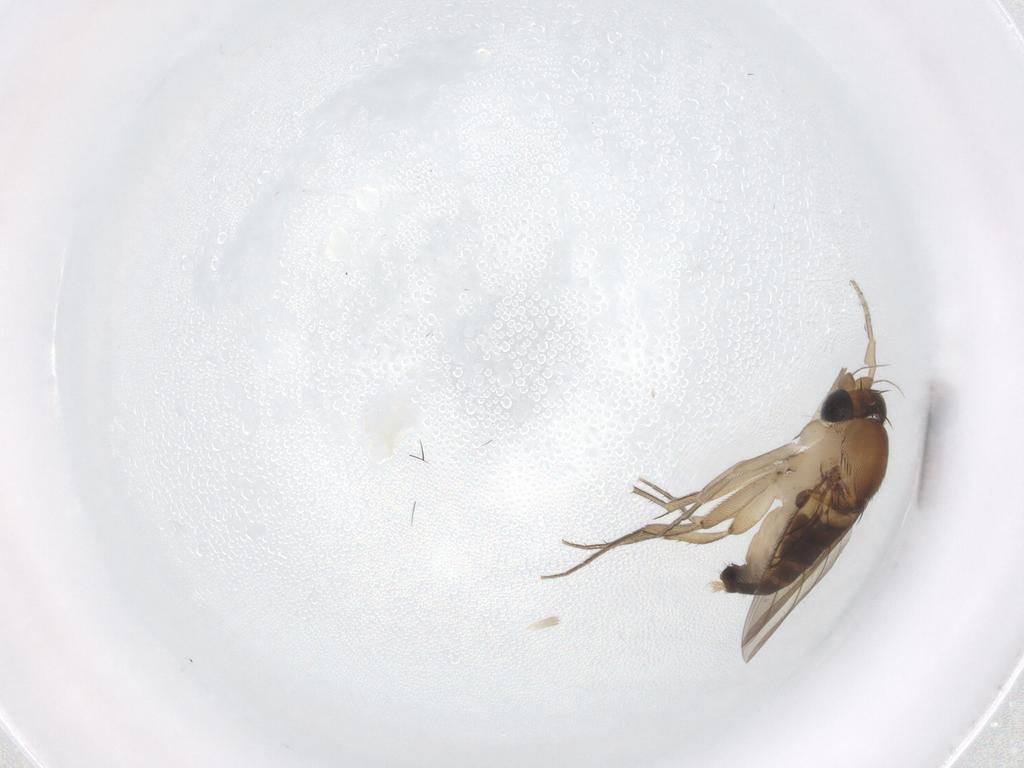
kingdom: Animalia
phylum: Arthropoda
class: Insecta
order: Diptera
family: Phoridae
